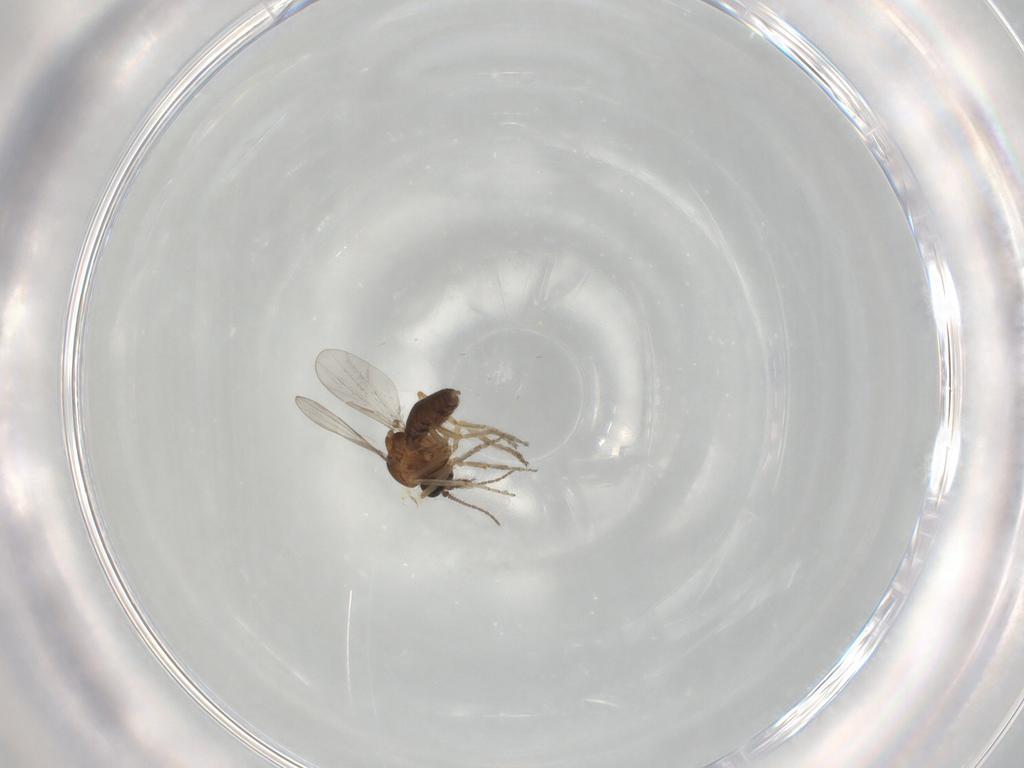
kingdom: Animalia
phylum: Arthropoda
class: Insecta
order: Diptera
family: Chironomidae
